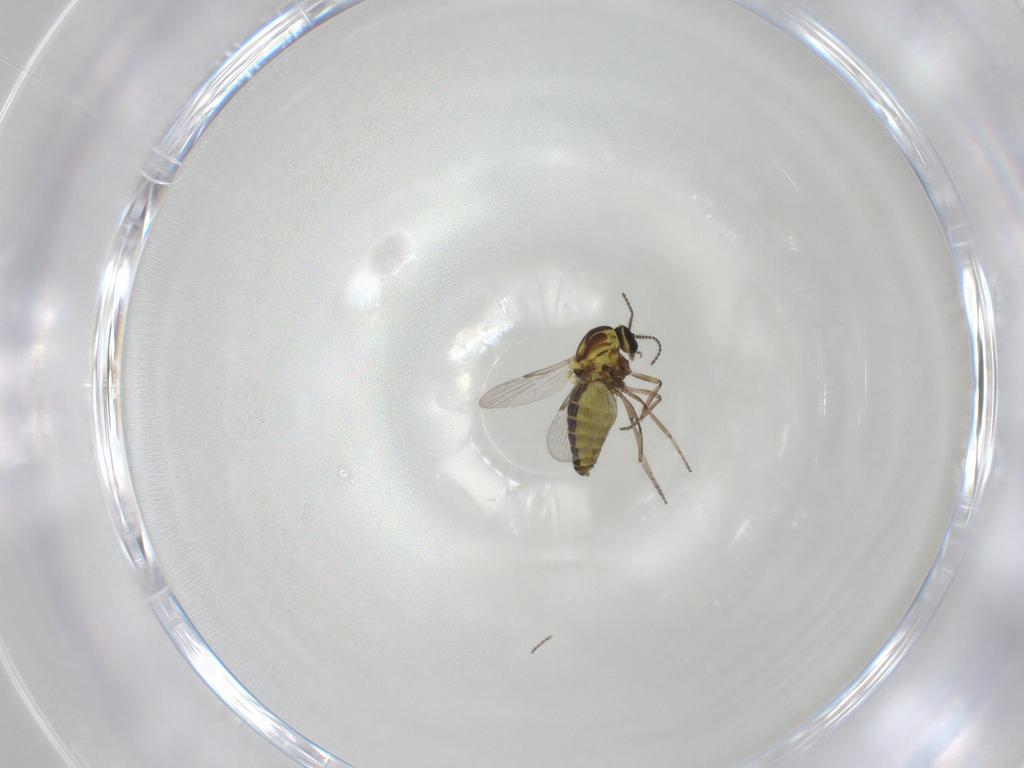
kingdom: Animalia
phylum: Arthropoda
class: Insecta
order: Diptera
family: Ceratopogonidae
